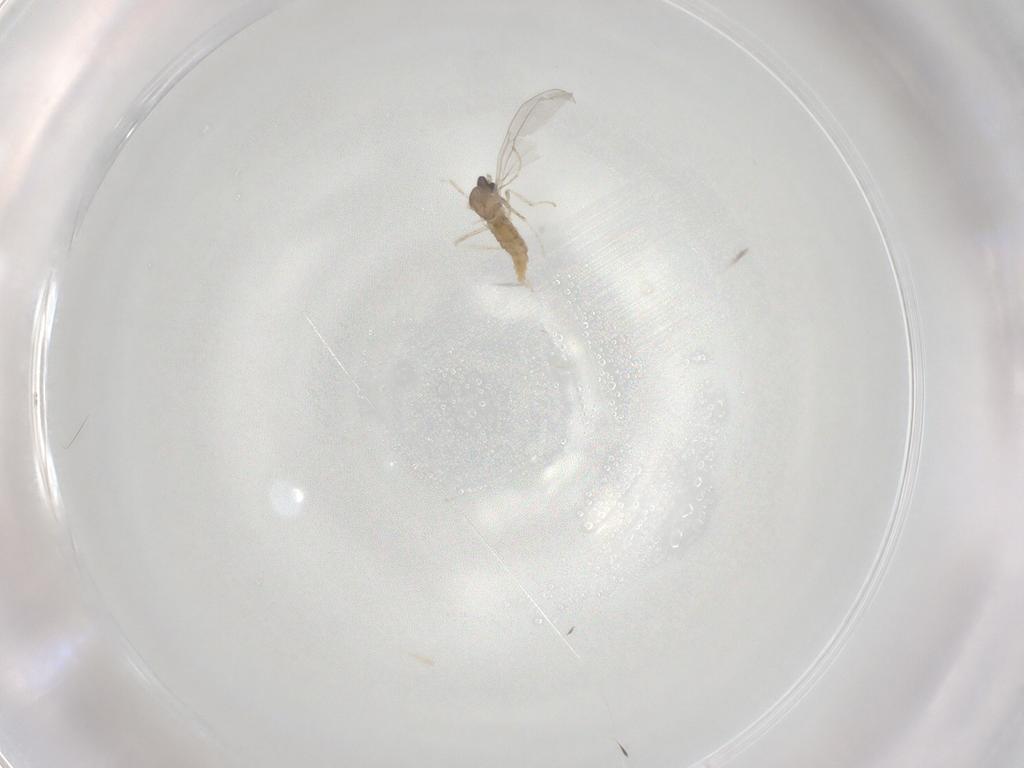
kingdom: Animalia
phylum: Arthropoda
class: Insecta
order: Diptera
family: Cecidomyiidae
